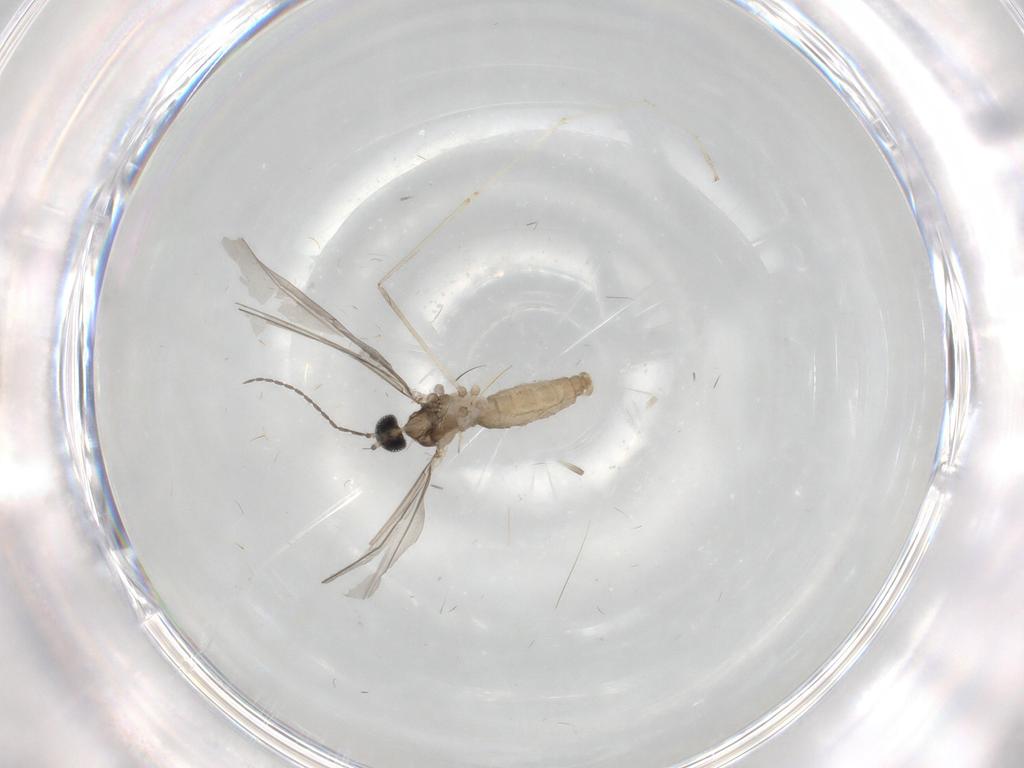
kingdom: Animalia
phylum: Arthropoda
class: Insecta
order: Diptera
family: Cecidomyiidae
